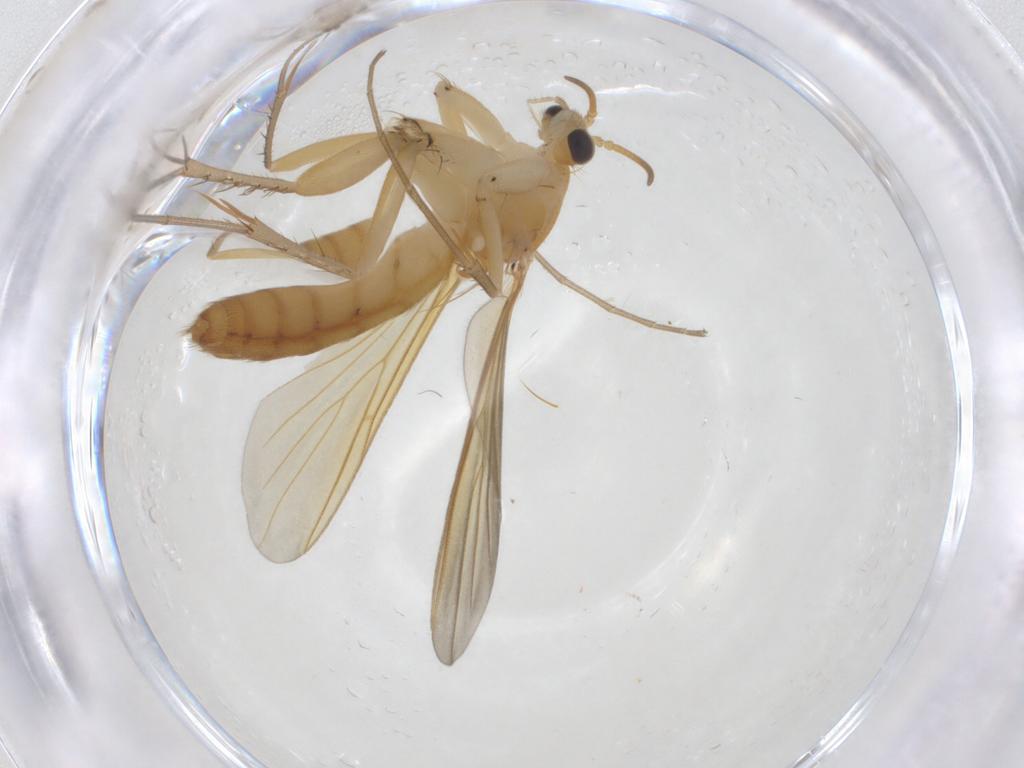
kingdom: Animalia
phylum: Arthropoda
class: Insecta
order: Diptera
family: Mycetophilidae
